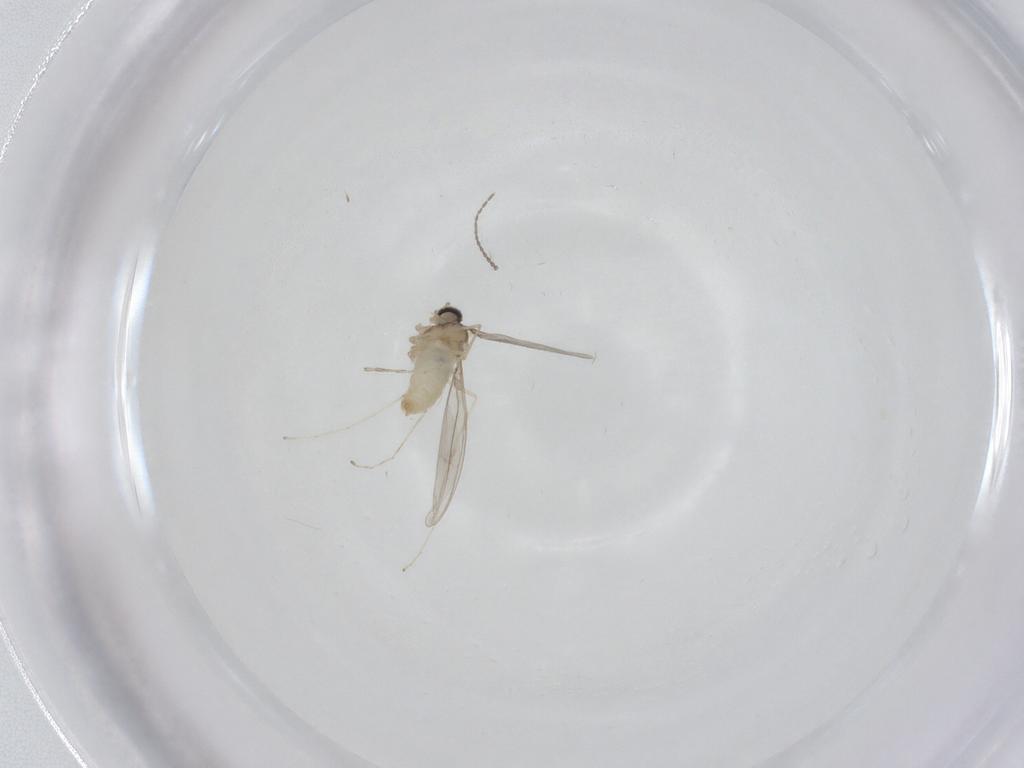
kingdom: Animalia
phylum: Arthropoda
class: Insecta
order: Diptera
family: Cecidomyiidae
